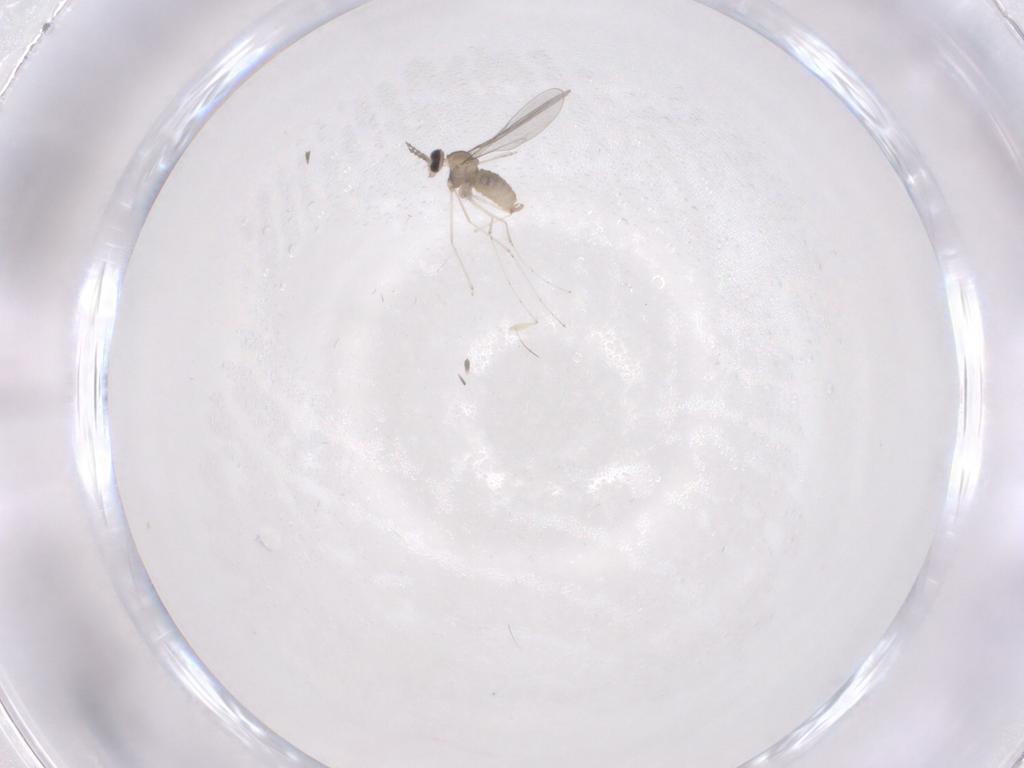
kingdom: Animalia
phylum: Arthropoda
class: Insecta
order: Diptera
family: Cecidomyiidae
